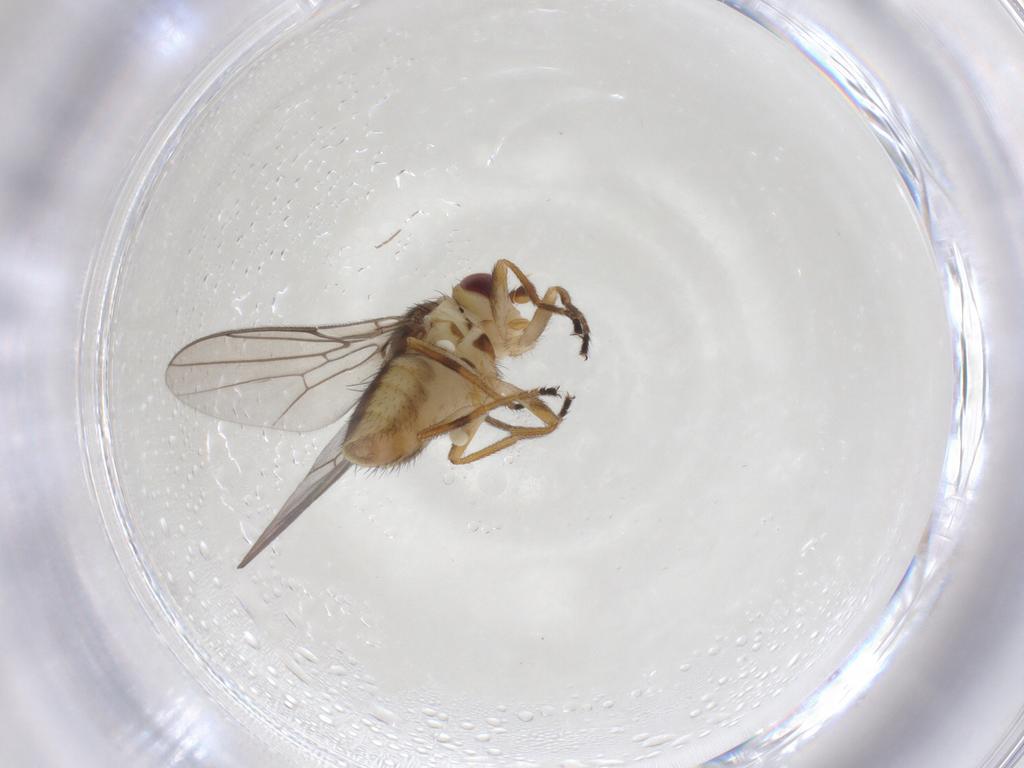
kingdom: Animalia
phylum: Arthropoda
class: Insecta
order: Diptera
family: Chloropidae
